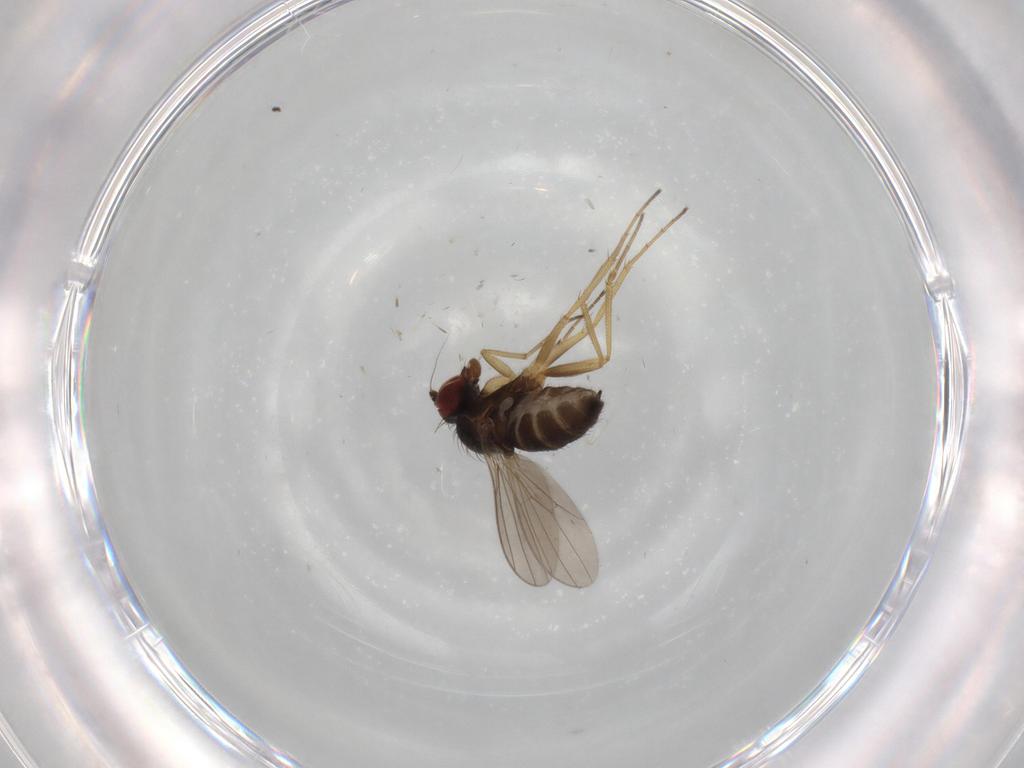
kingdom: Animalia
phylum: Arthropoda
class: Insecta
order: Diptera
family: Dolichopodidae
